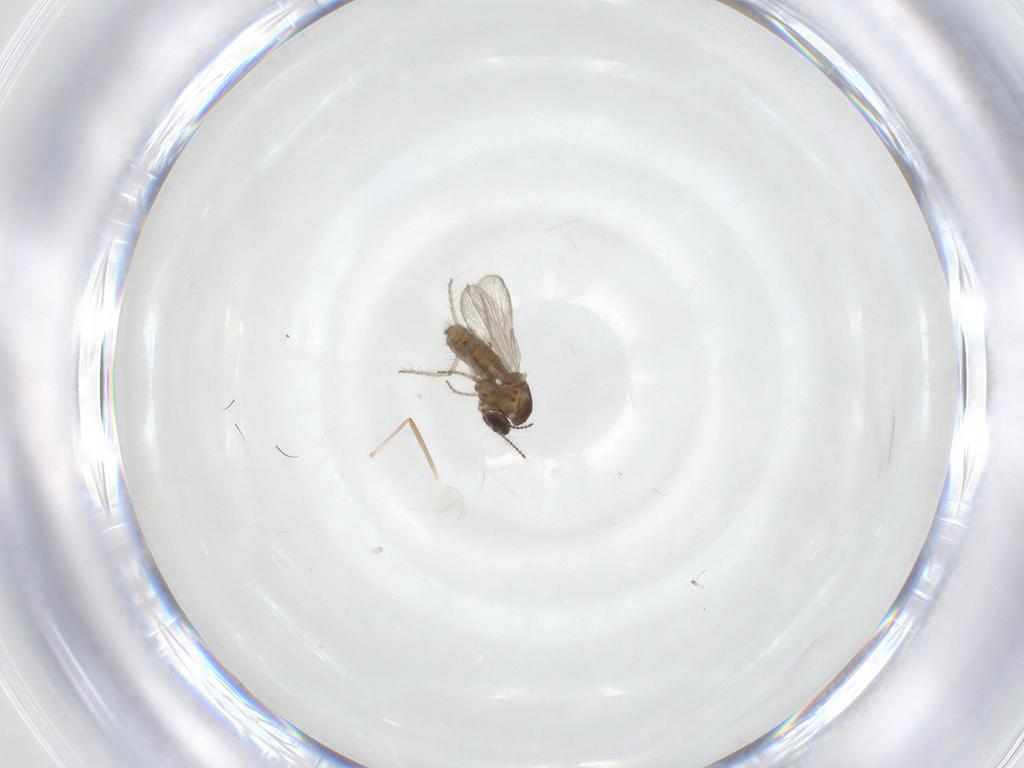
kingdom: Animalia
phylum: Arthropoda
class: Insecta
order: Diptera
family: Ceratopogonidae
